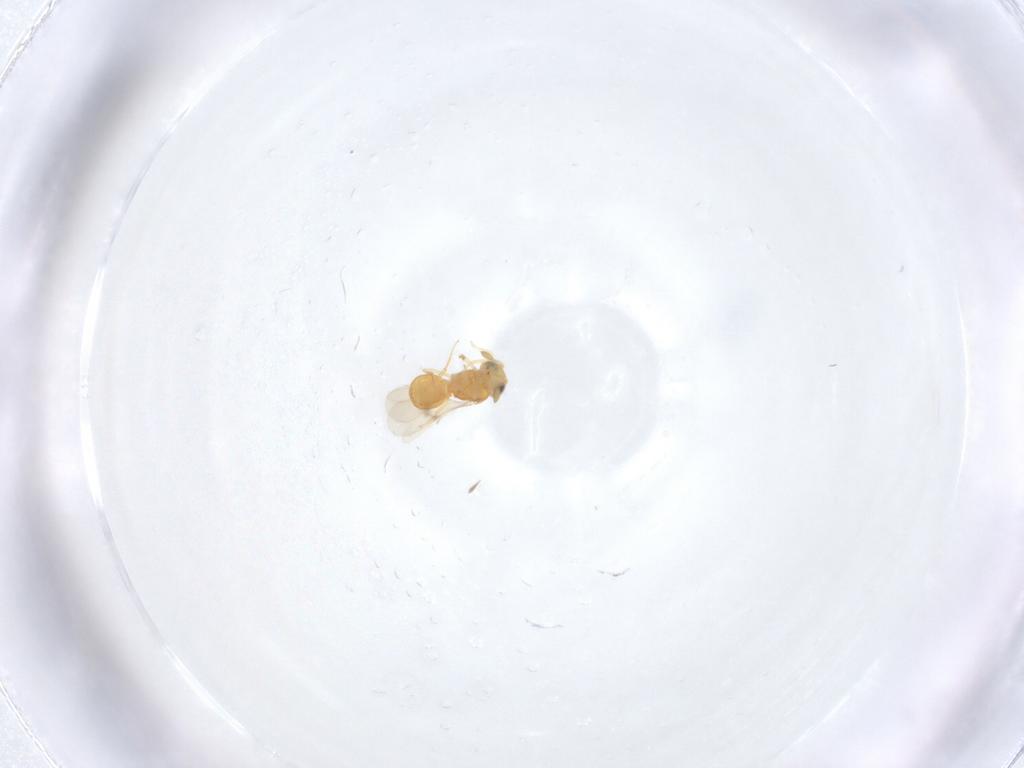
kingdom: Animalia
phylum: Arthropoda
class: Insecta
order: Hymenoptera
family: Scelionidae
